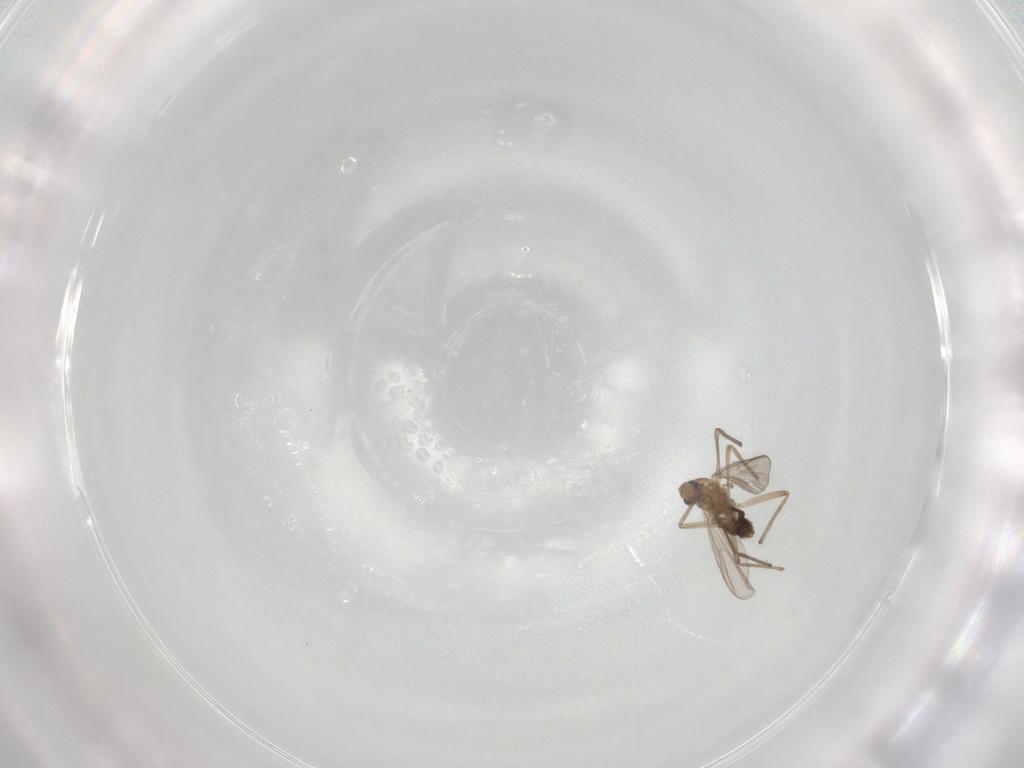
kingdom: Animalia
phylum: Arthropoda
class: Insecta
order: Diptera
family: Chironomidae
